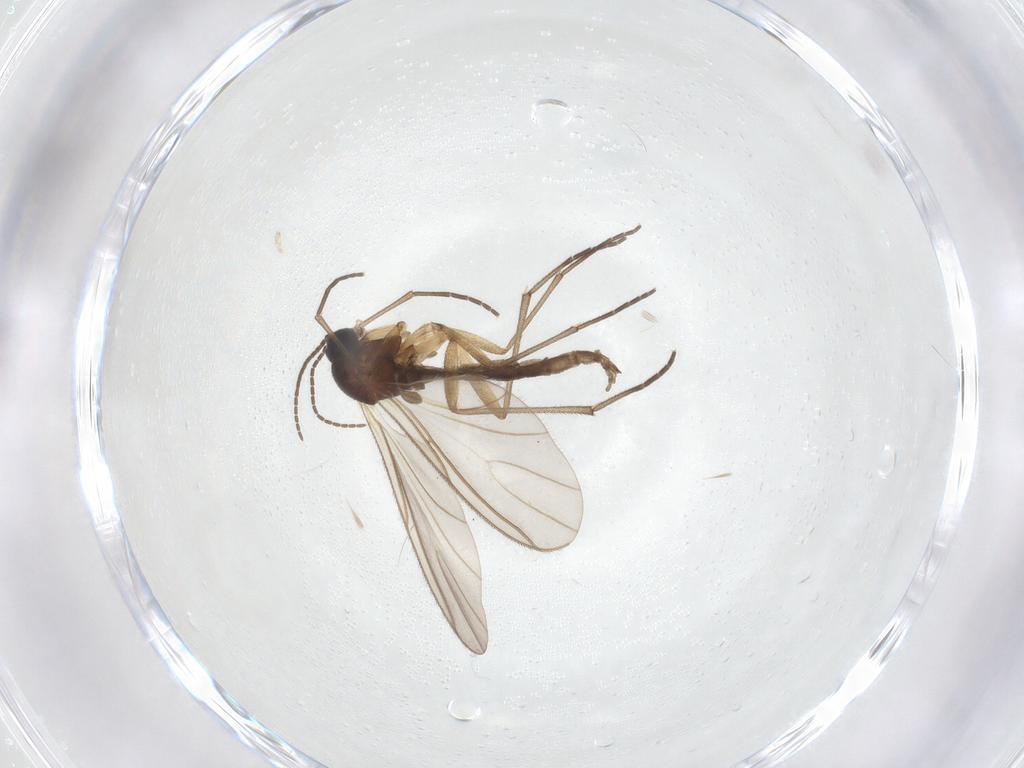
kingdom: Animalia
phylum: Arthropoda
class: Insecta
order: Diptera
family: Sciaridae
